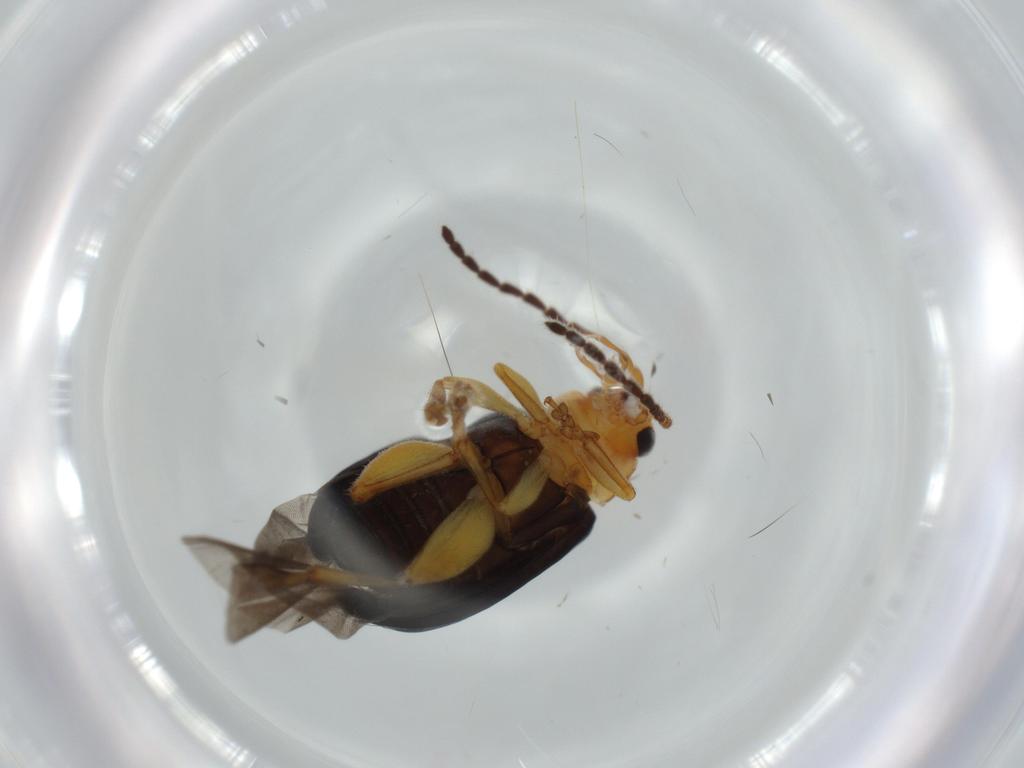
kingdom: Animalia
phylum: Arthropoda
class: Insecta
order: Coleoptera
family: Chrysomelidae
